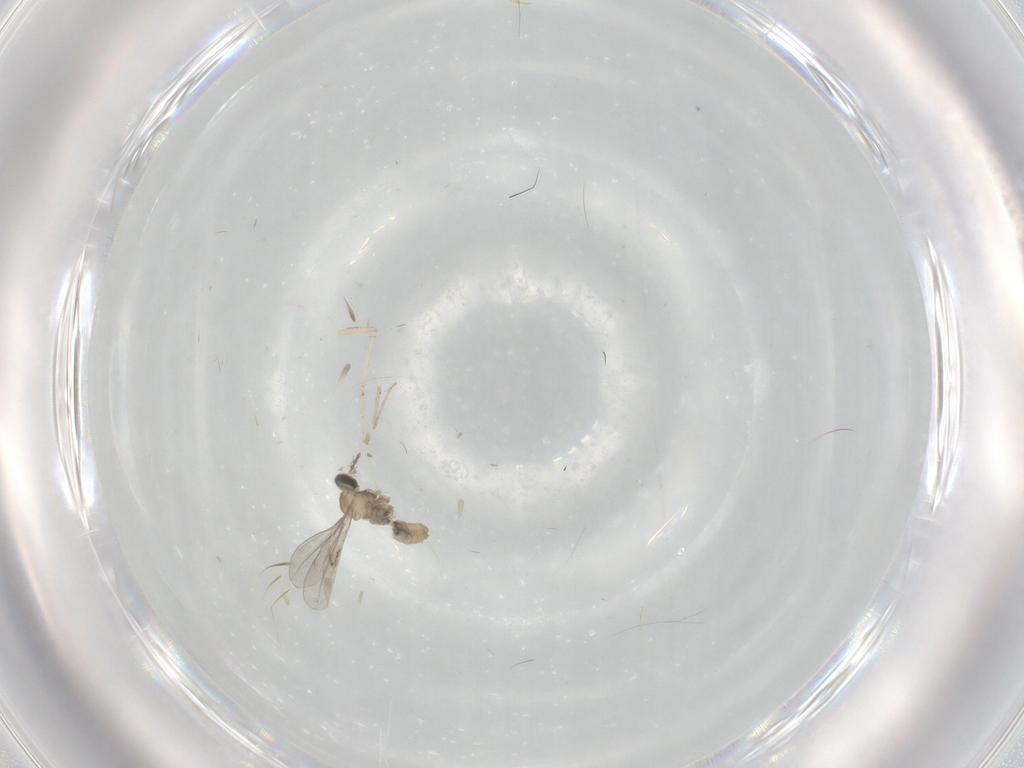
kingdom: Animalia
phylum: Arthropoda
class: Insecta
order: Diptera
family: Cecidomyiidae
